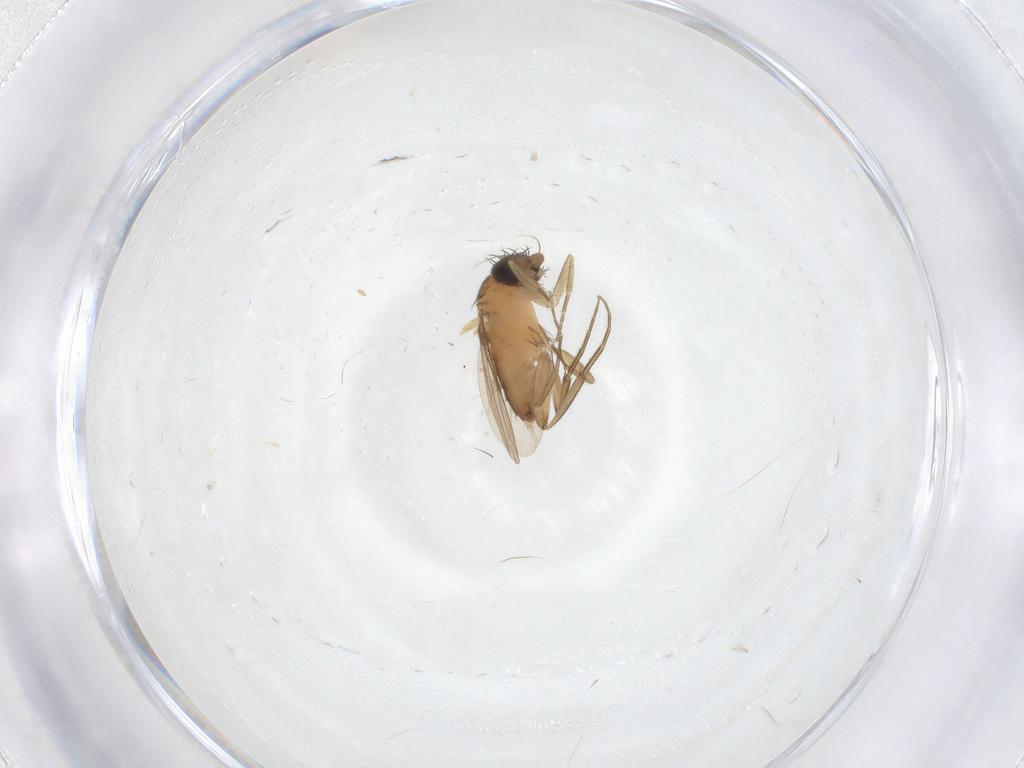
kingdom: Animalia
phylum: Arthropoda
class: Insecta
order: Diptera
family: Phoridae
